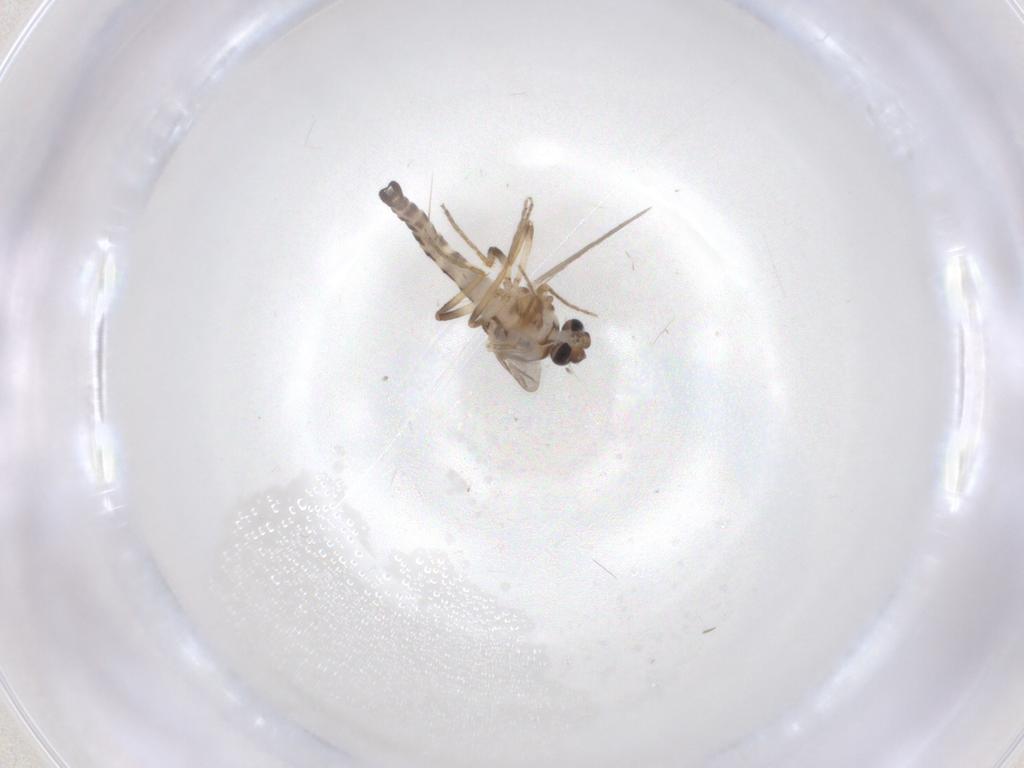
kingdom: Animalia
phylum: Arthropoda
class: Insecta
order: Diptera
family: Ceratopogonidae
